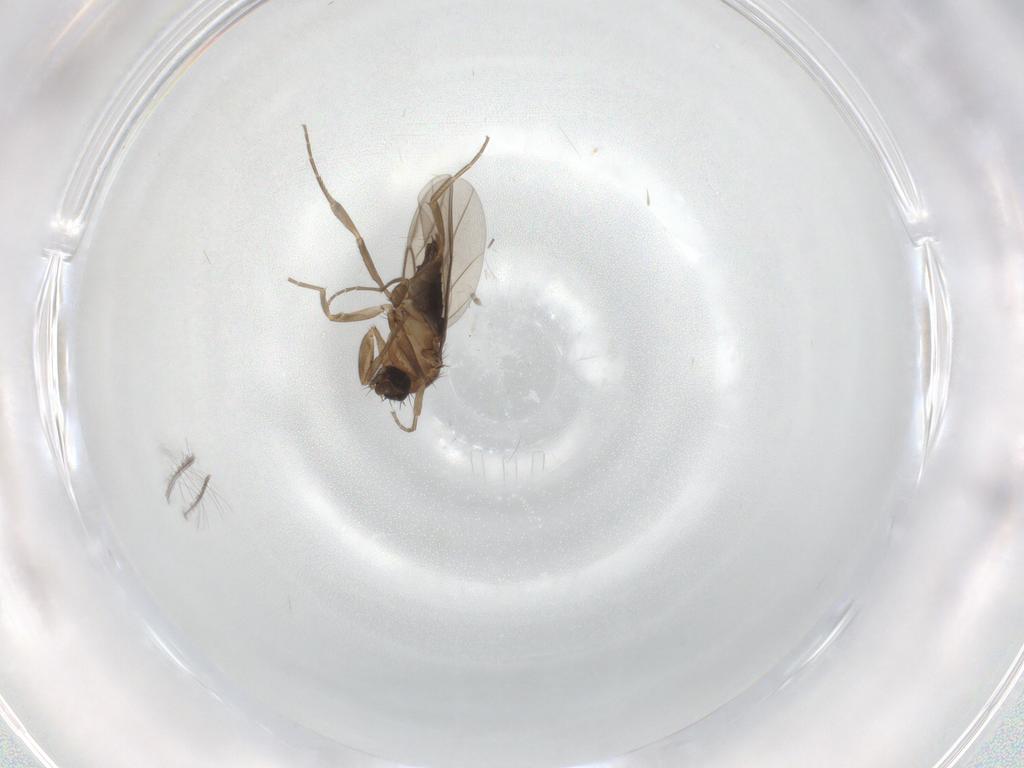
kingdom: Animalia
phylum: Arthropoda
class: Insecta
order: Diptera
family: Phoridae
